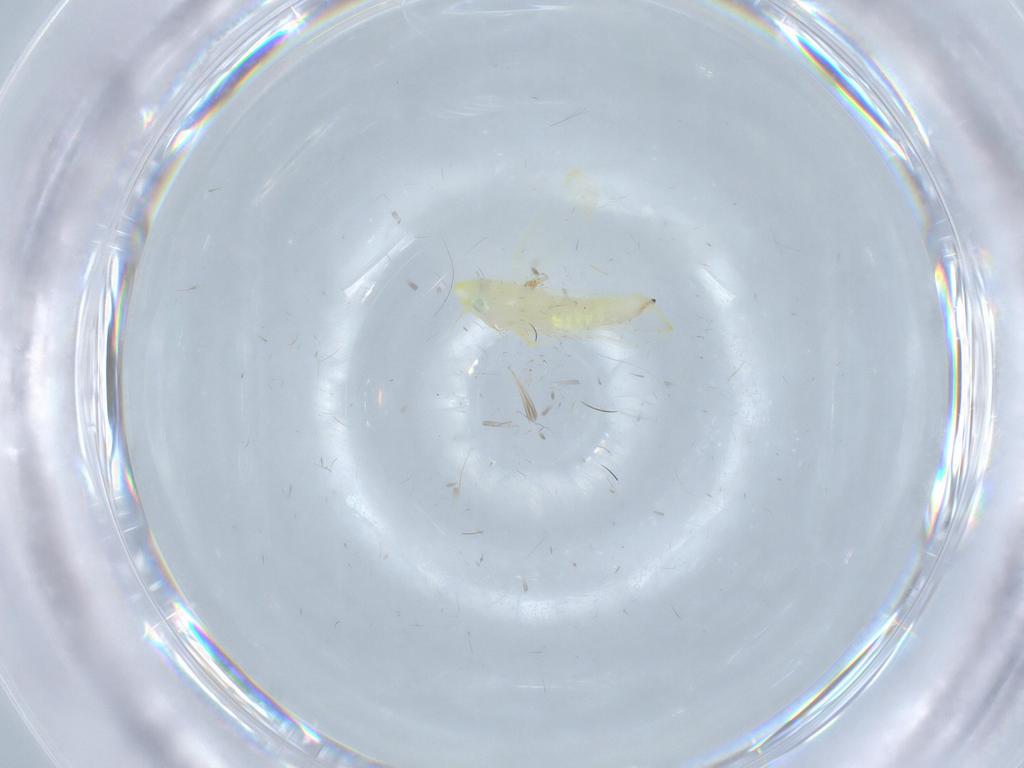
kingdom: Animalia
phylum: Arthropoda
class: Insecta
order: Hemiptera
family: Cicadellidae
